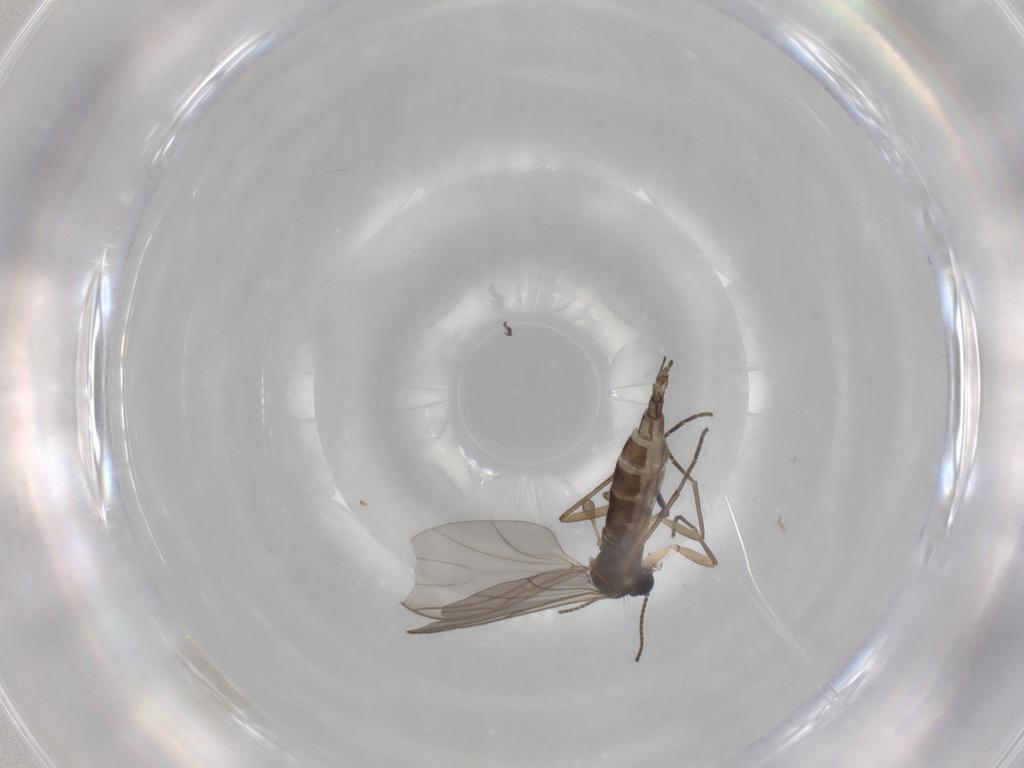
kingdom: Animalia
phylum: Arthropoda
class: Insecta
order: Diptera
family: Sciaridae
